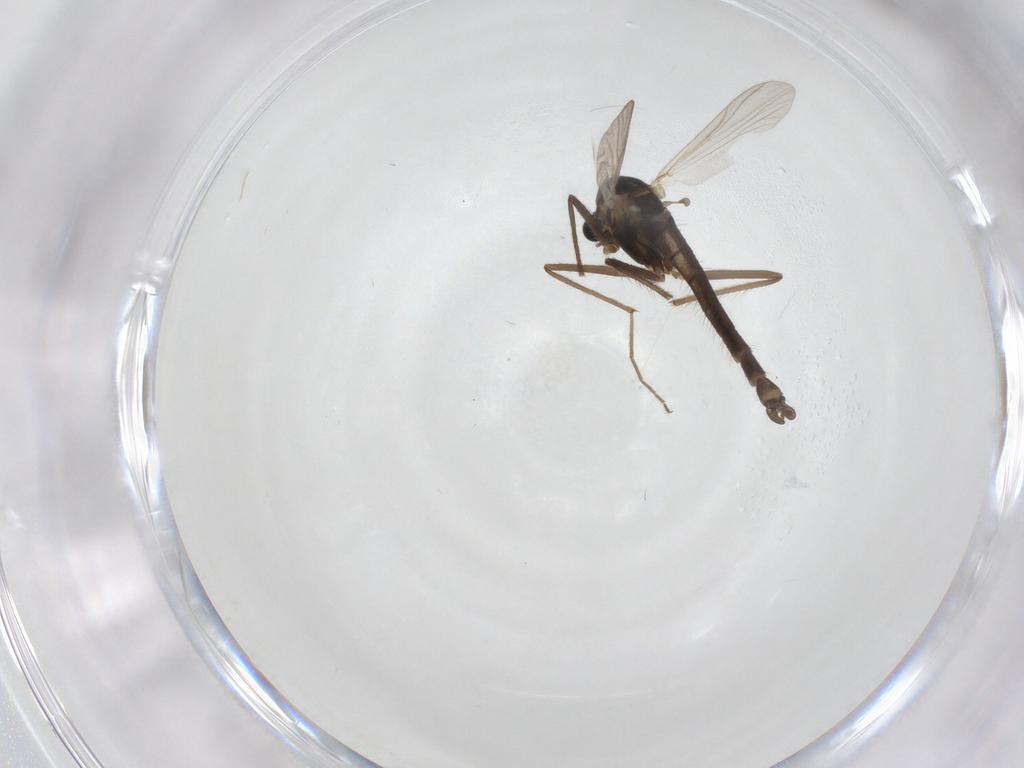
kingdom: Animalia
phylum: Arthropoda
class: Insecta
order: Diptera
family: Chironomidae
